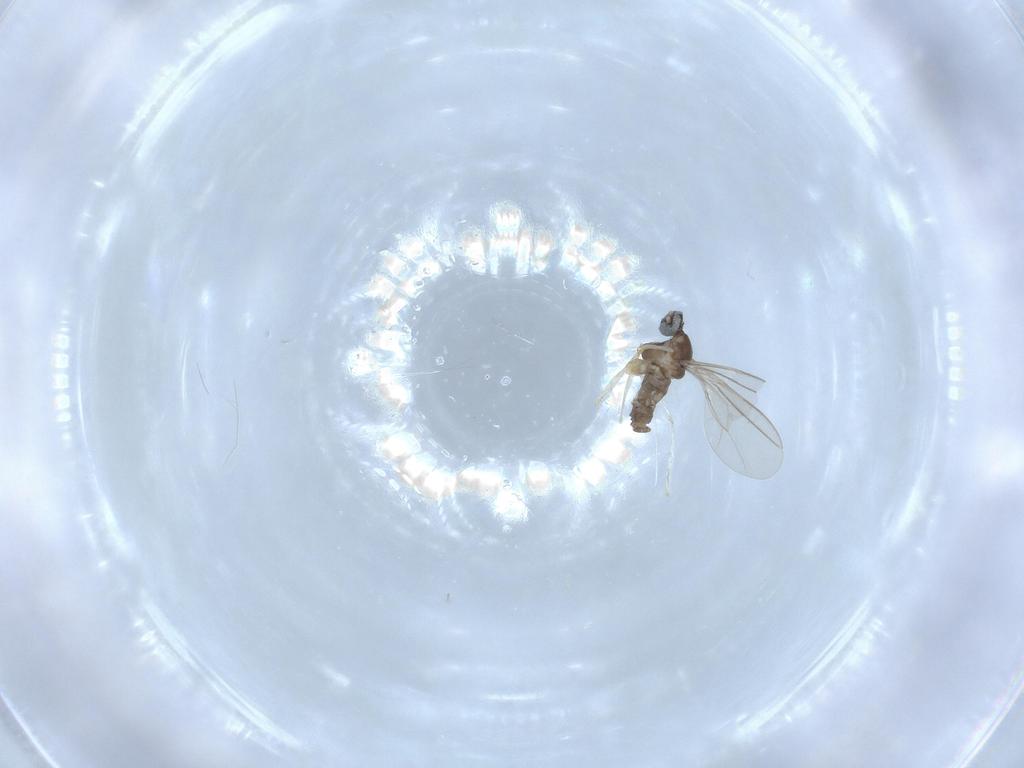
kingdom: Animalia
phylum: Arthropoda
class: Insecta
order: Diptera
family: Cecidomyiidae
